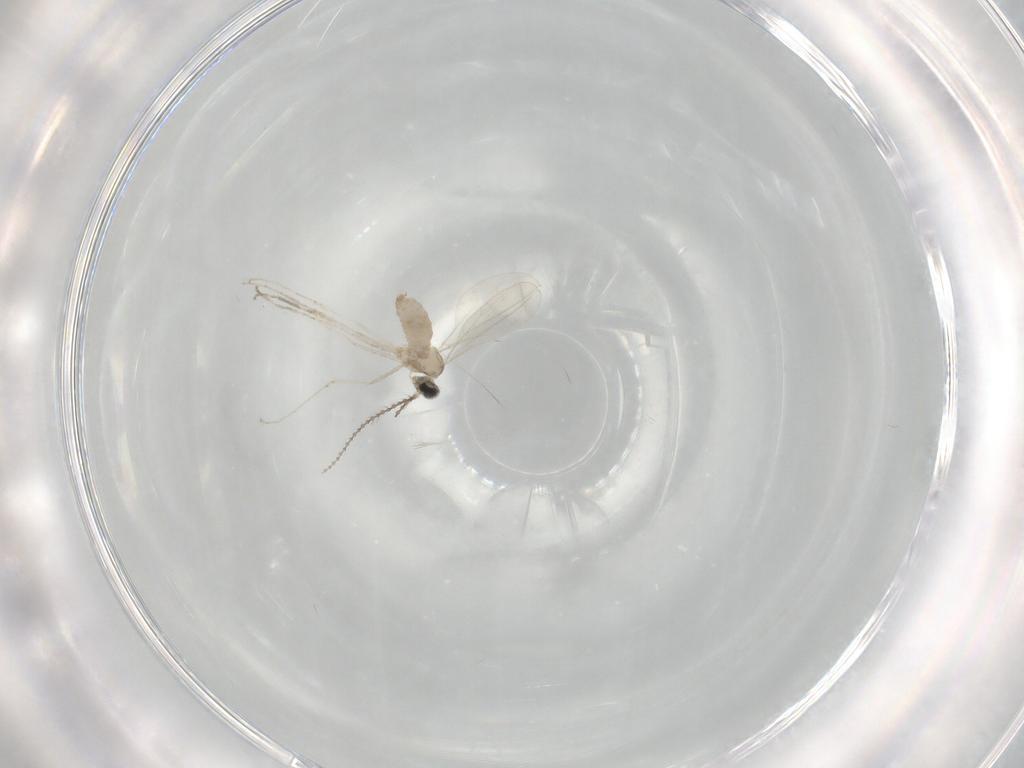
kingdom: Animalia
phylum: Arthropoda
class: Insecta
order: Diptera
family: Cecidomyiidae
